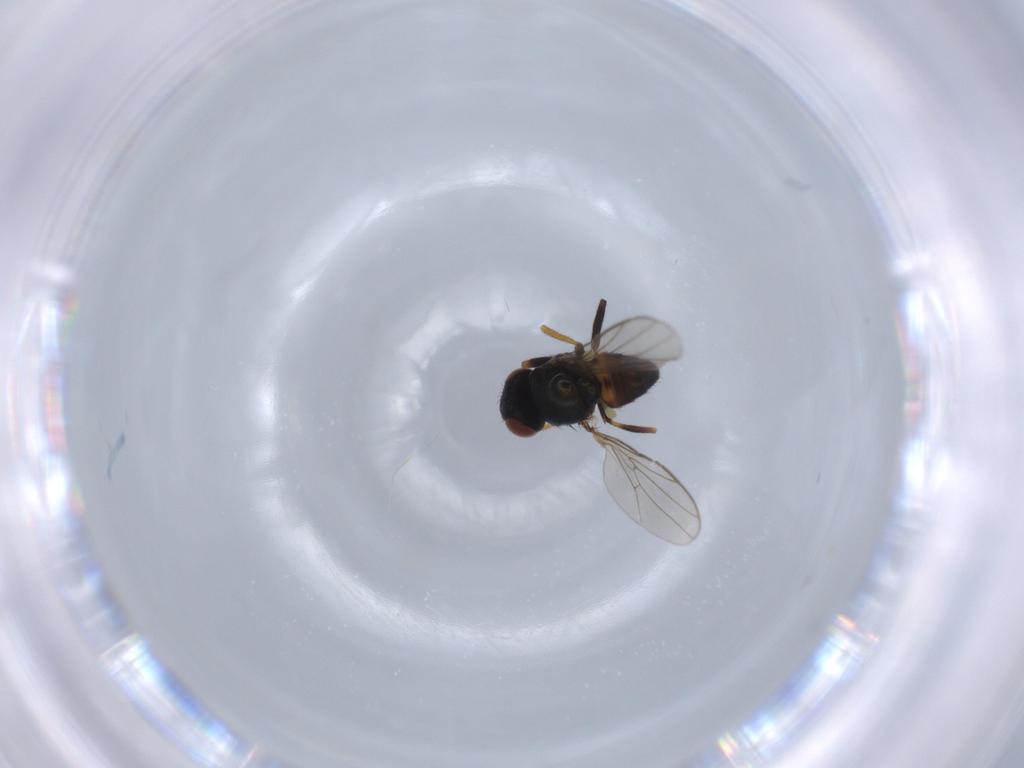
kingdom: Animalia
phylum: Arthropoda
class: Insecta
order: Diptera
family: Chloropidae
